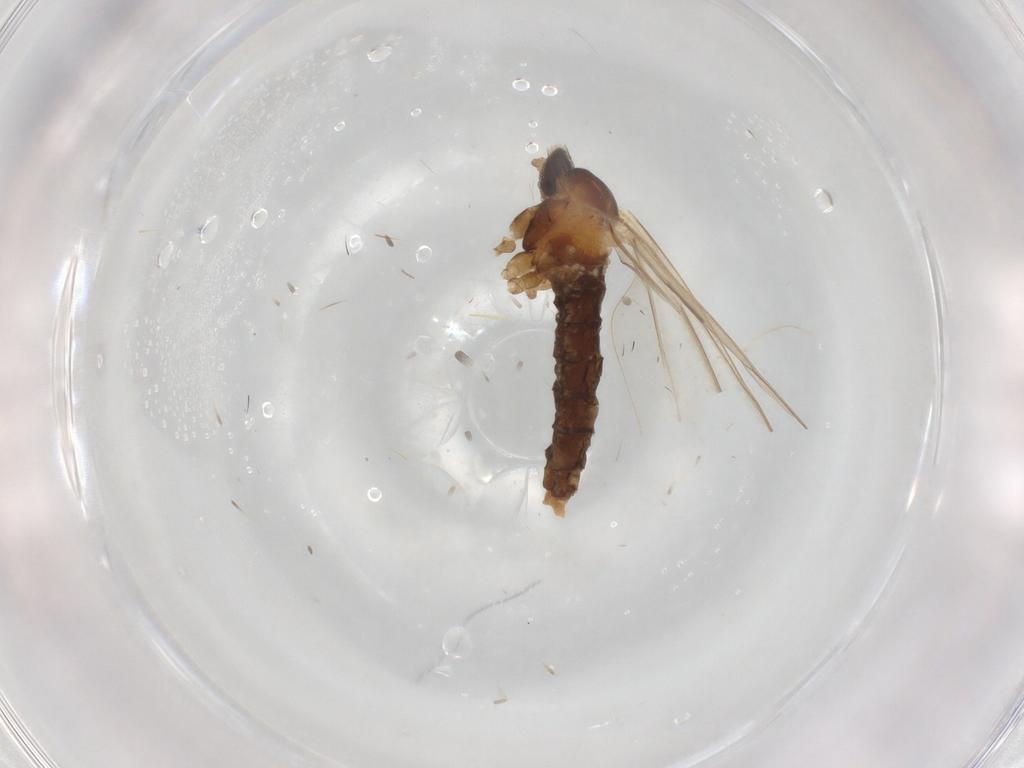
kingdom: Animalia
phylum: Arthropoda
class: Insecta
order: Diptera
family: Cecidomyiidae
